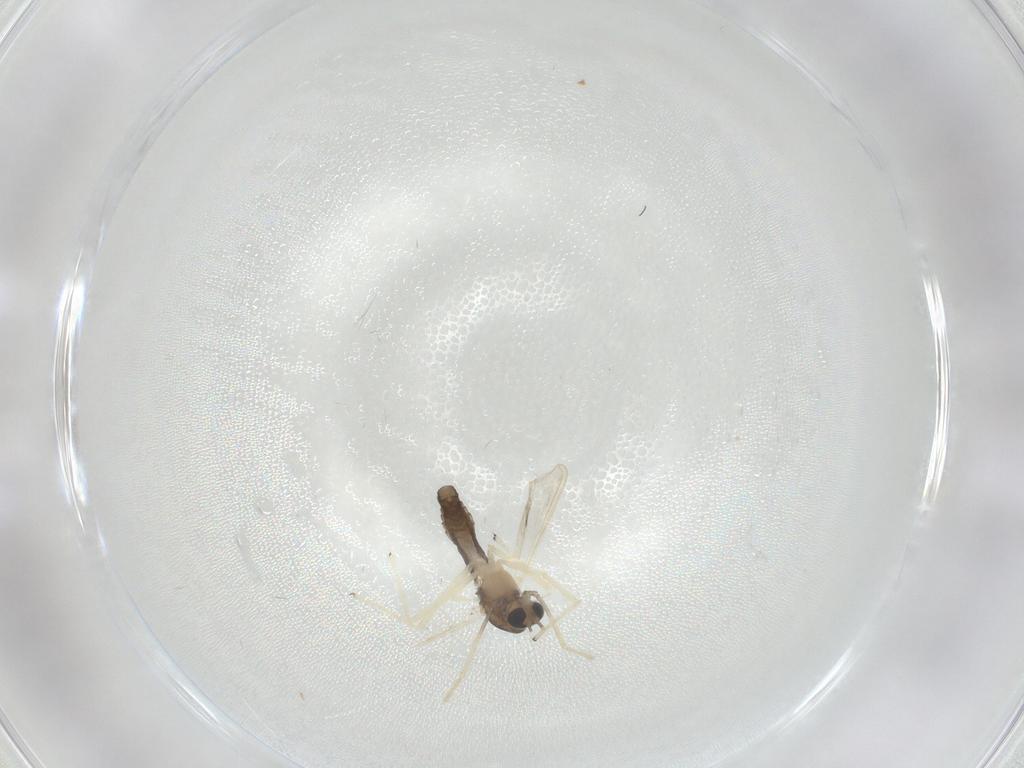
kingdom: Animalia
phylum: Arthropoda
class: Insecta
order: Diptera
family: Chironomidae
